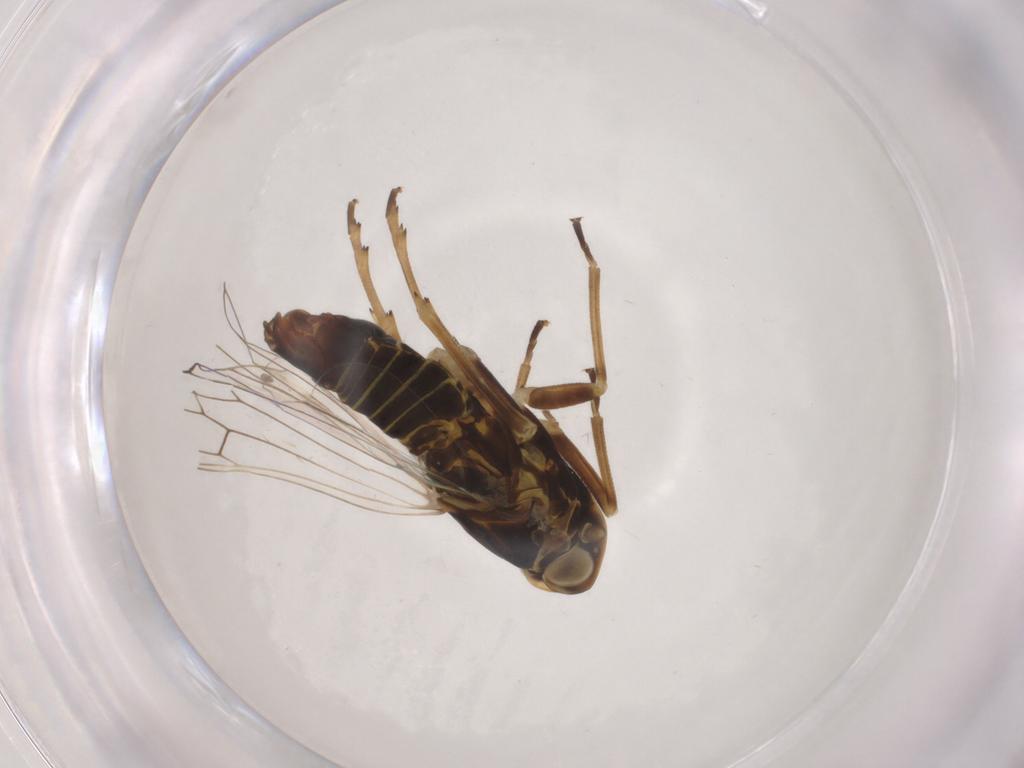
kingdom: Animalia
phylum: Arthropoda
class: Insecta
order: Hemiptera
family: Cixiidae
